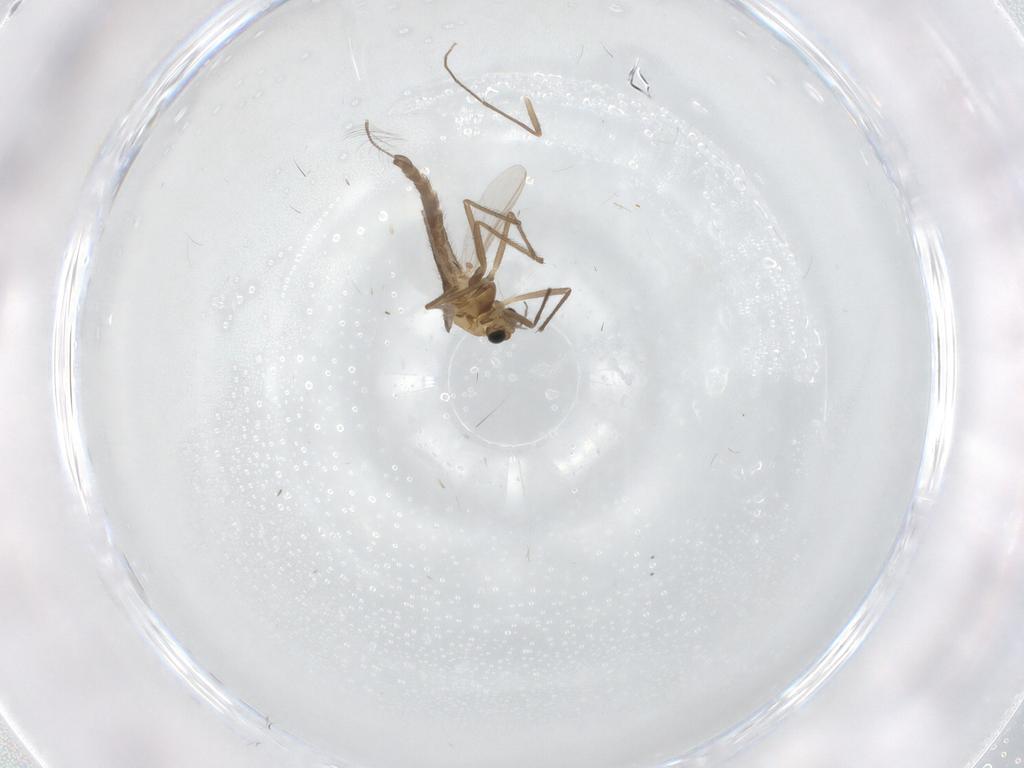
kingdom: Animalia
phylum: Arthropoda
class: Insecta
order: Diptera
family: Chironomidae
